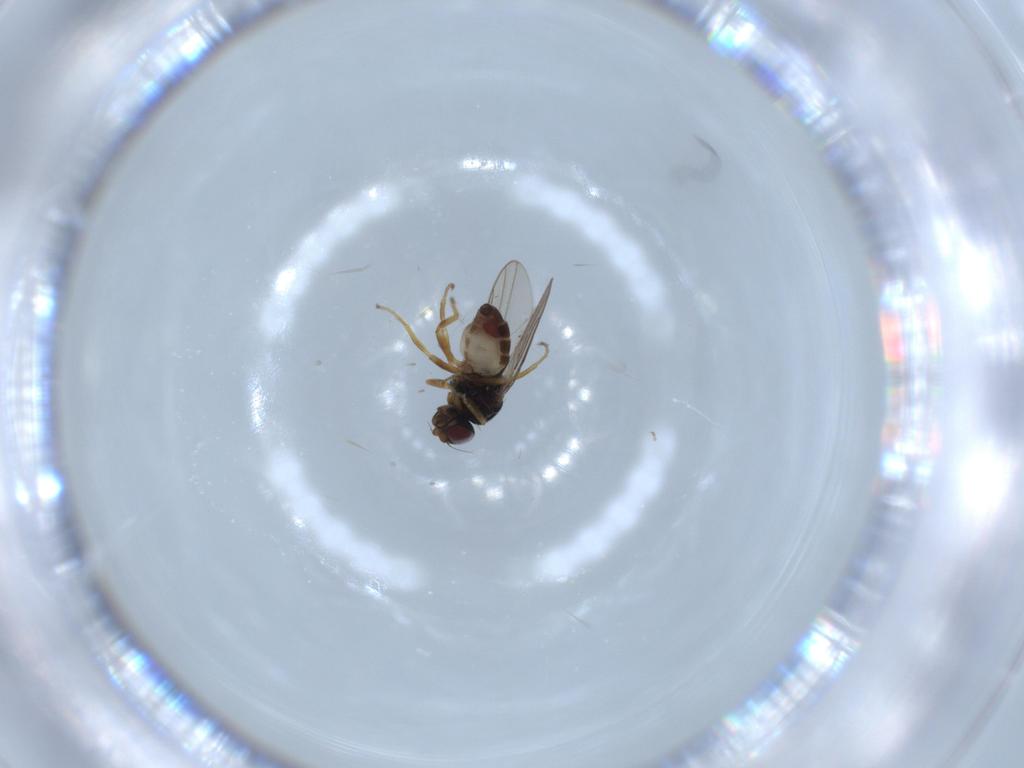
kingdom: Animalia
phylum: Arthropoda
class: Insecta
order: Diptera
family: Chloropidae
